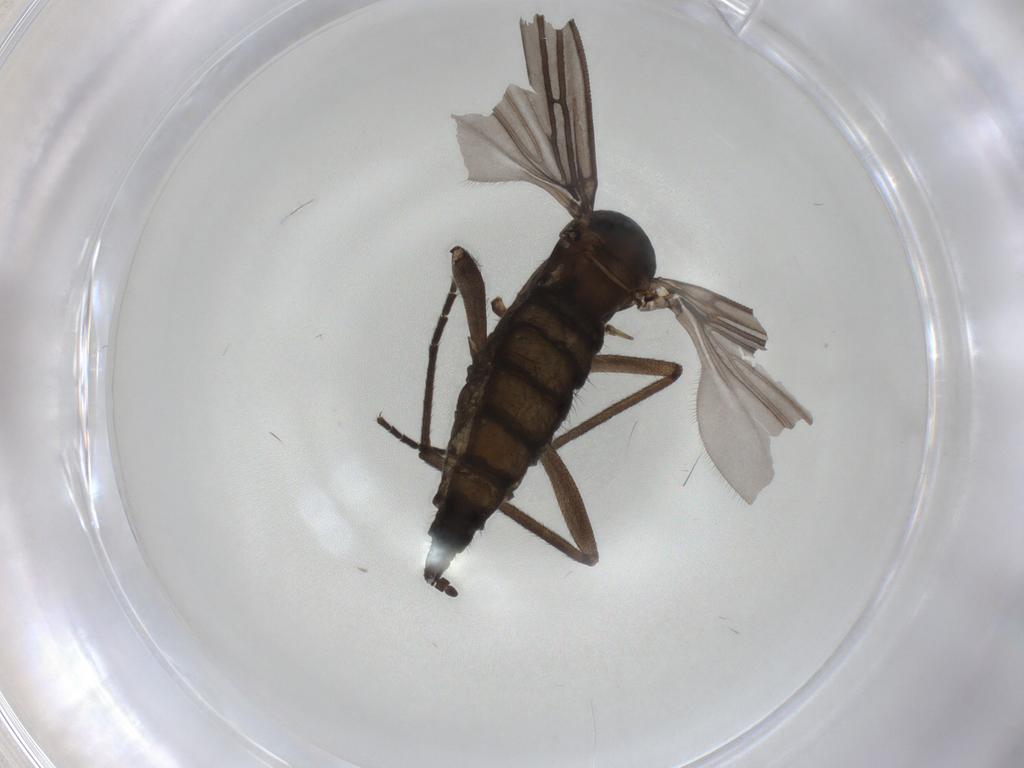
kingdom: Animalia
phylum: Arthropoda
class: Insecta
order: Diptera
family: Sciaridae
